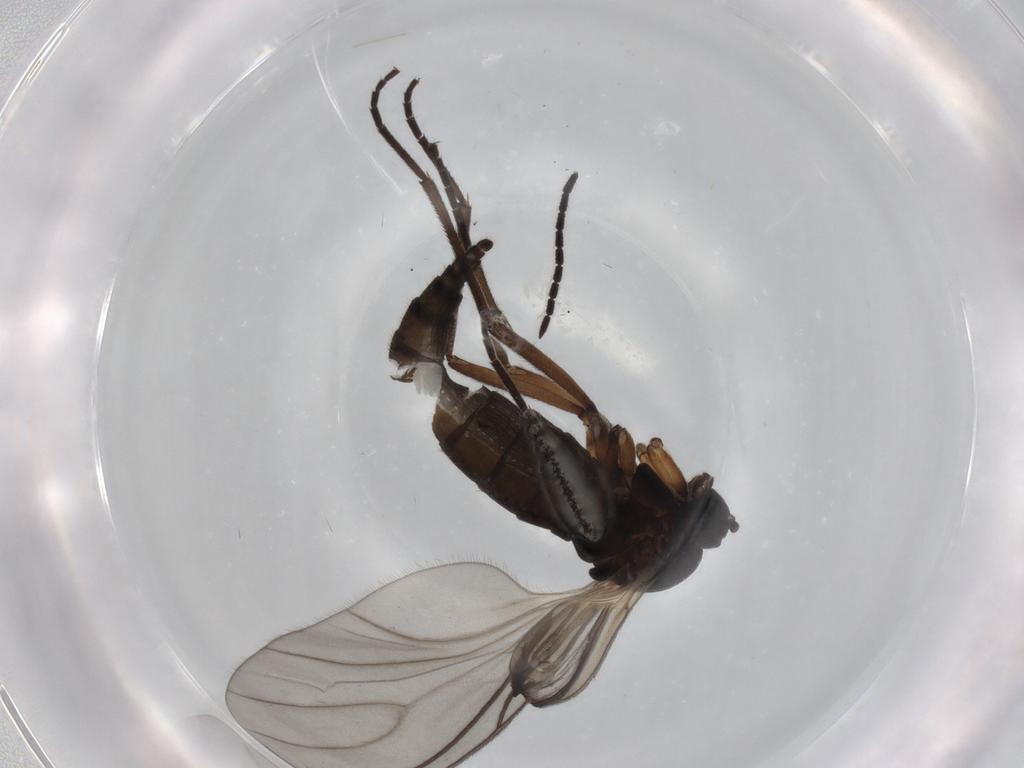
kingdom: Animalia
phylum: Arthropoda
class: Insecta
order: Diptera
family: Sciaridae
